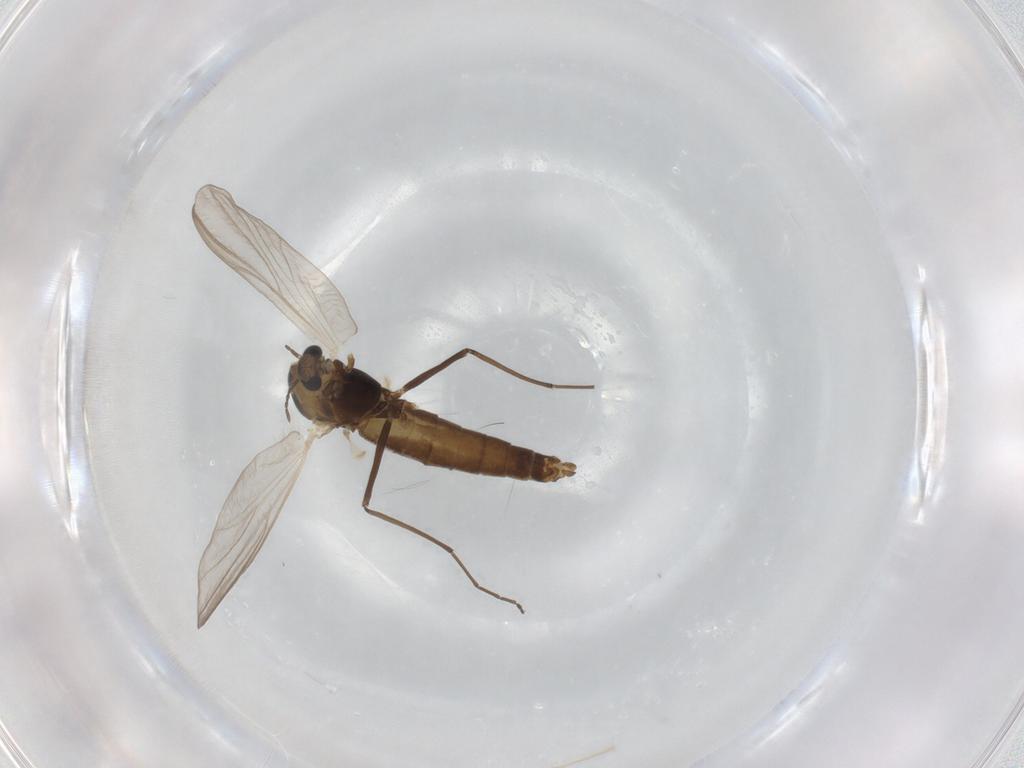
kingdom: Animalia
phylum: Arthropoda
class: Insecta
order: Diptera
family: Chironomidae
